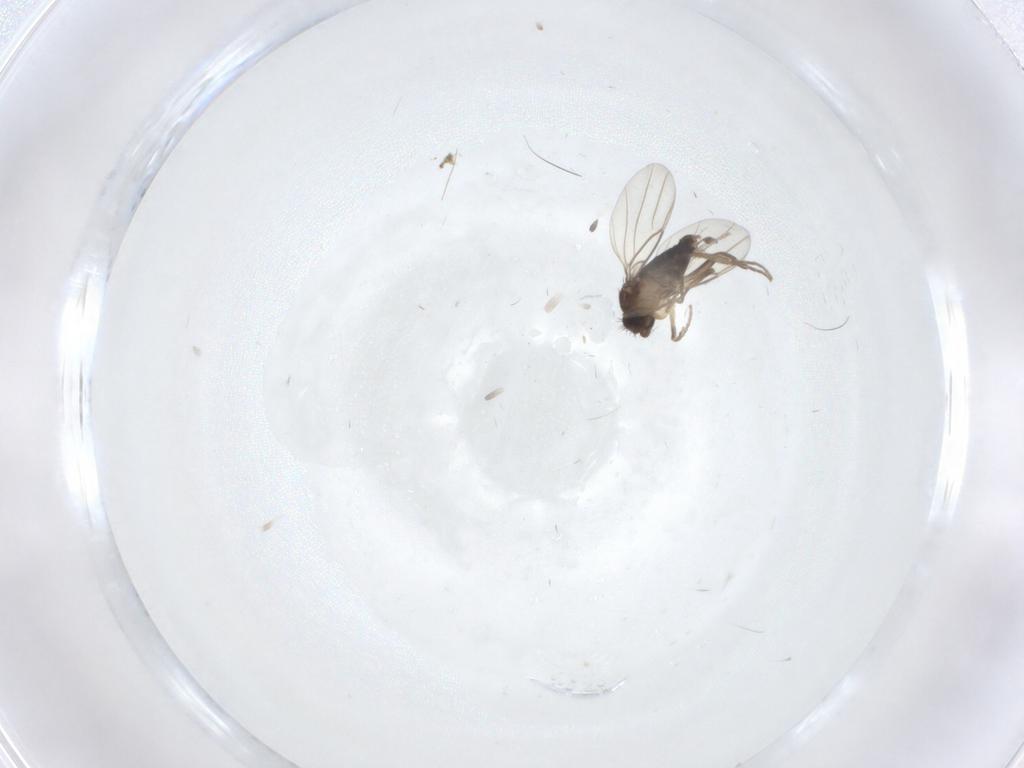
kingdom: Animalia
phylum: Arthropoda
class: Insecta
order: Diptera
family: Phoridae
